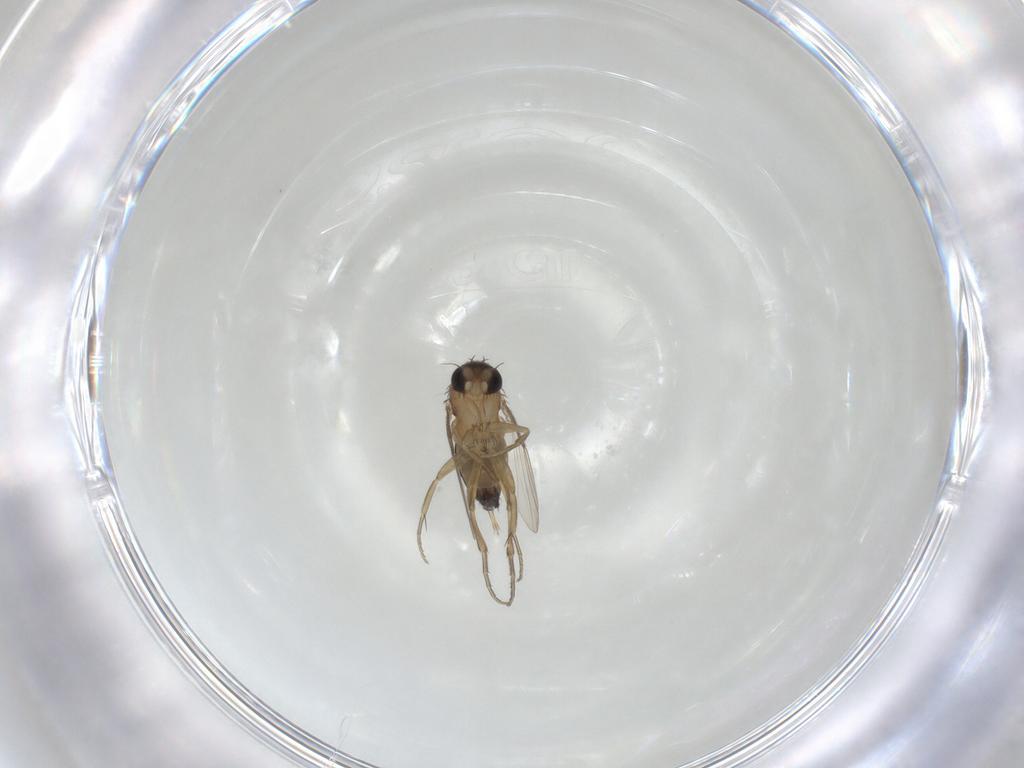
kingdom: Animalia
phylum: Arthropoda
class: Insecta
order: Diptera
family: Phoridae
